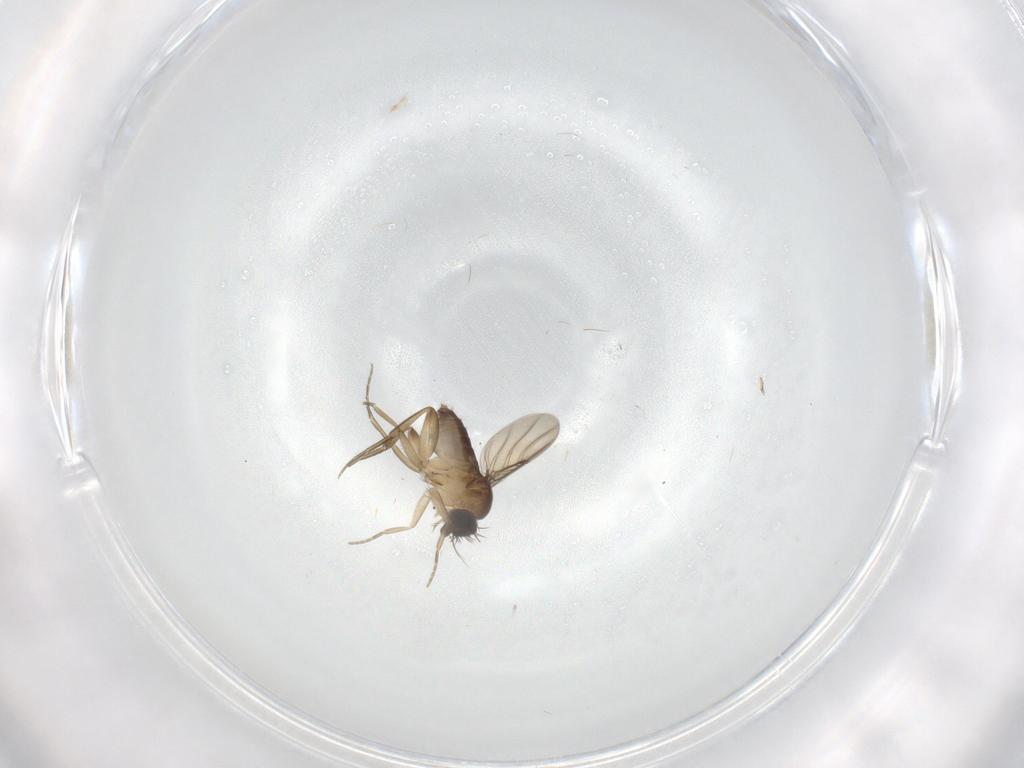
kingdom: Animalia
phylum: Arthropoda
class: Insecta
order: Diptera
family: Phoridae
